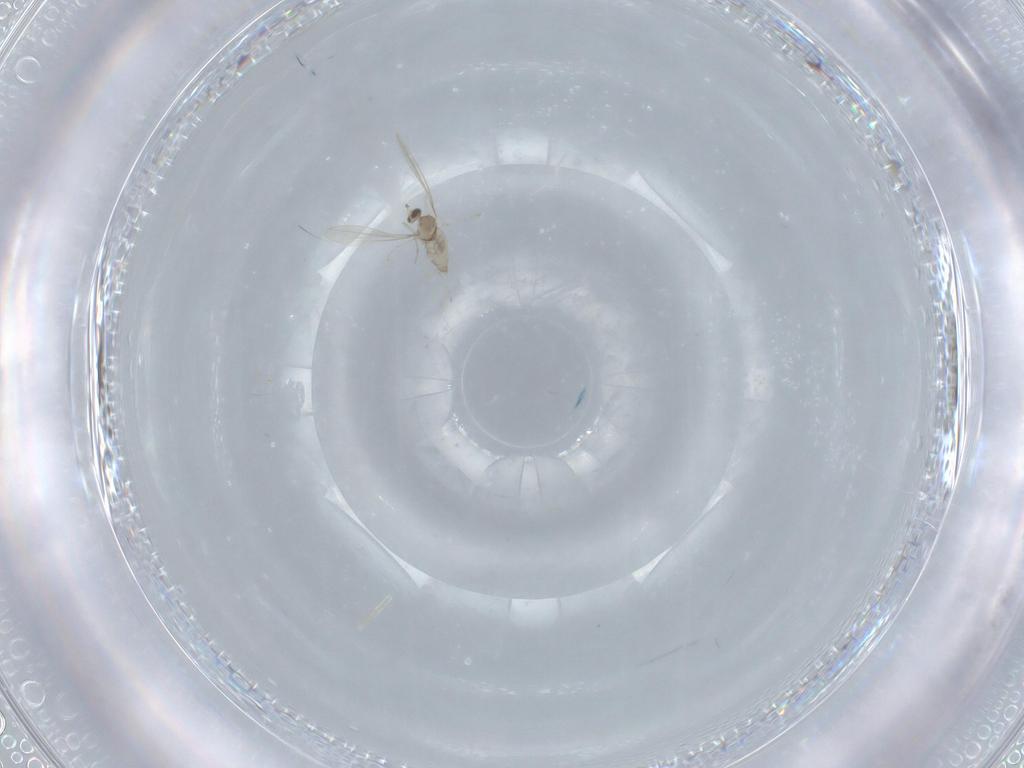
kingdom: Animalia
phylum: Arthropoda
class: Insecta
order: Diptera
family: Cecidomyiidae
